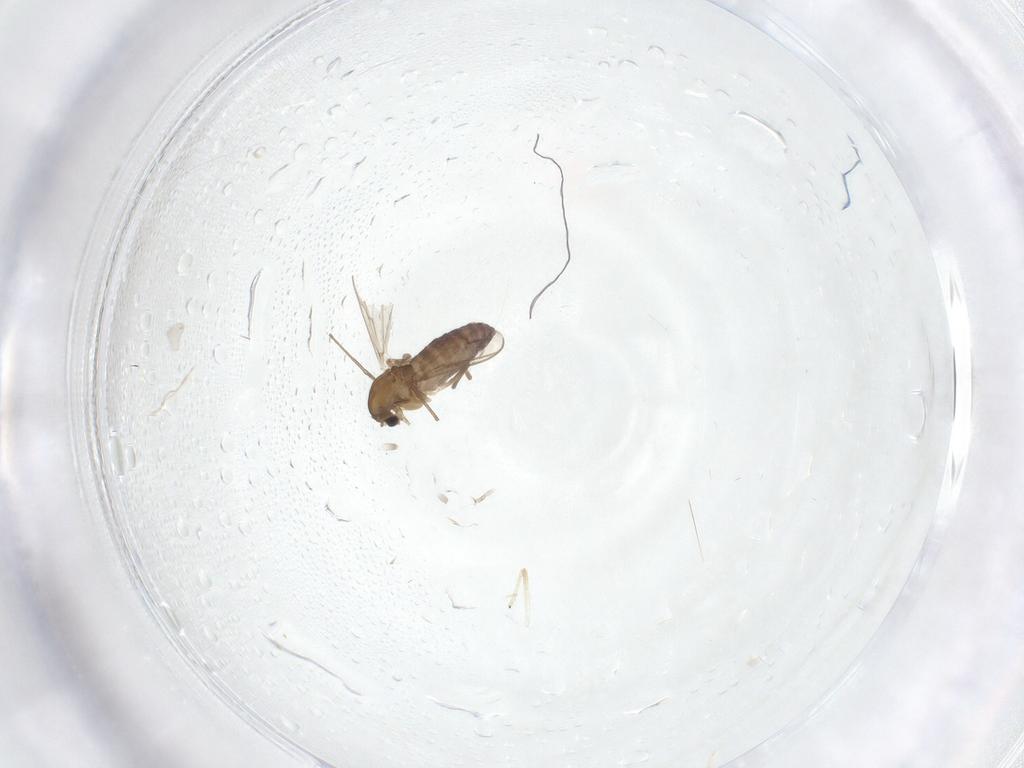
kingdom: Animalia
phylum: Arthropoda
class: Insecta
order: Diptera
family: Chironomidae
